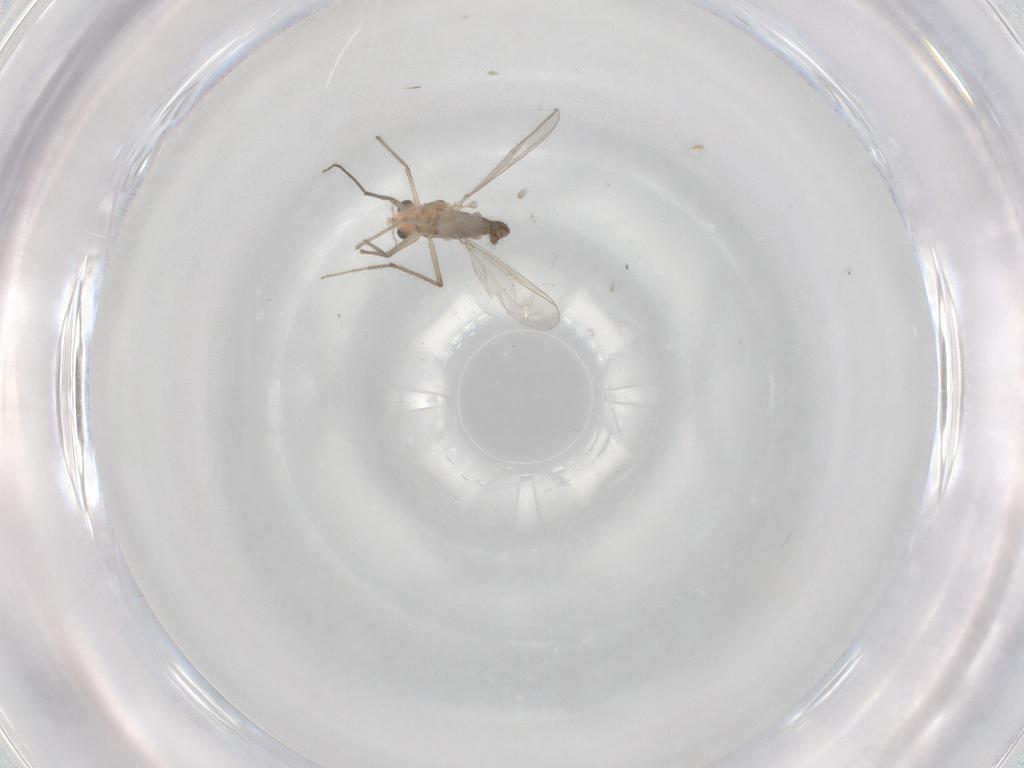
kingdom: Animalia
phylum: Arthropoda
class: Insecta
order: Diptera
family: Chironomidae
